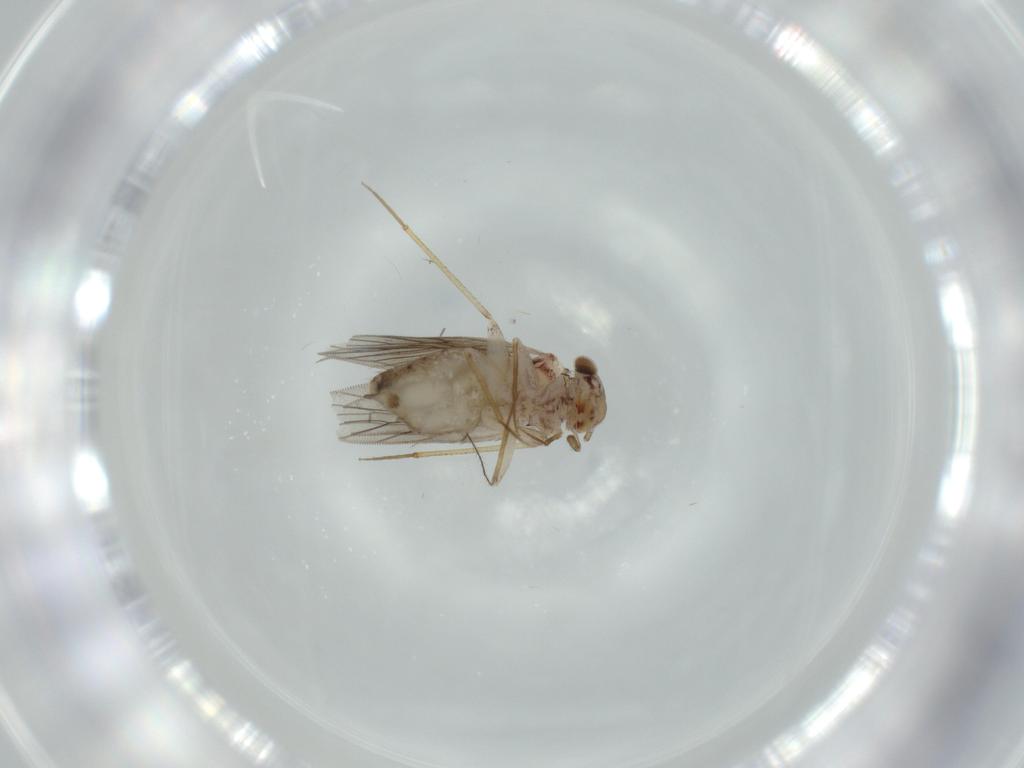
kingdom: Animalia
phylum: Arthropoda
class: Insecta
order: Psocodea
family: Lepidopsocidae
